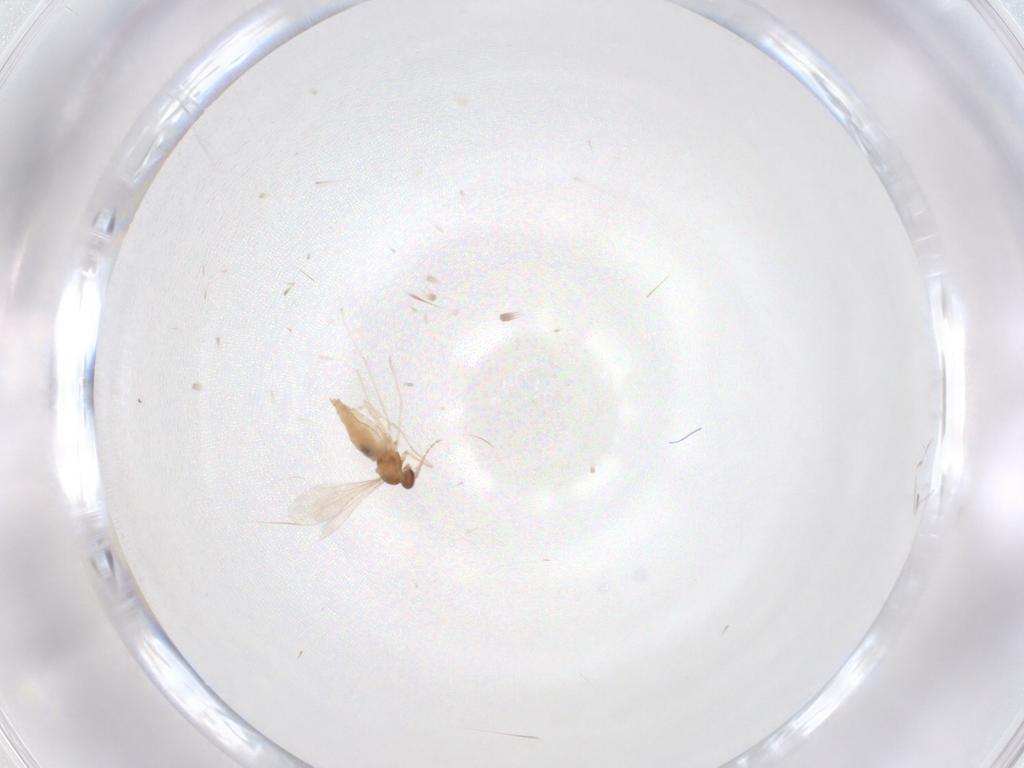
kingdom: Animalia
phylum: Arthropoda
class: Insecta
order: Diptera
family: Cecidomyiidae
